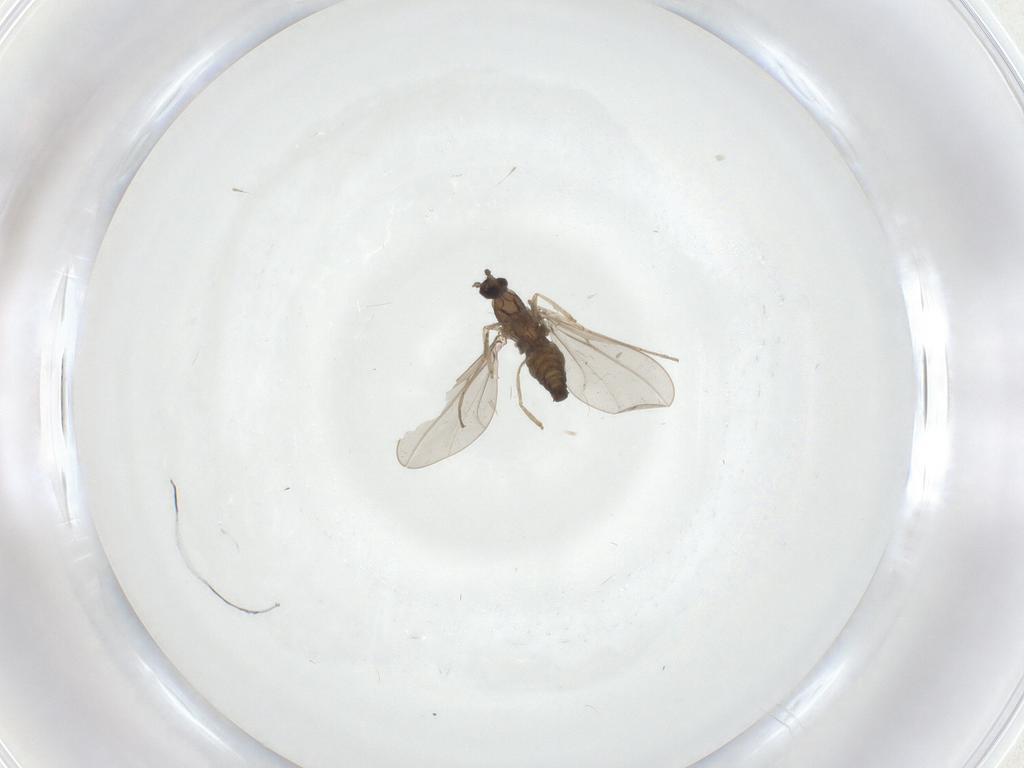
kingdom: Animalia
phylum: Arthropoda
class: Insecta
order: Diptera
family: Cecidomyiidae
